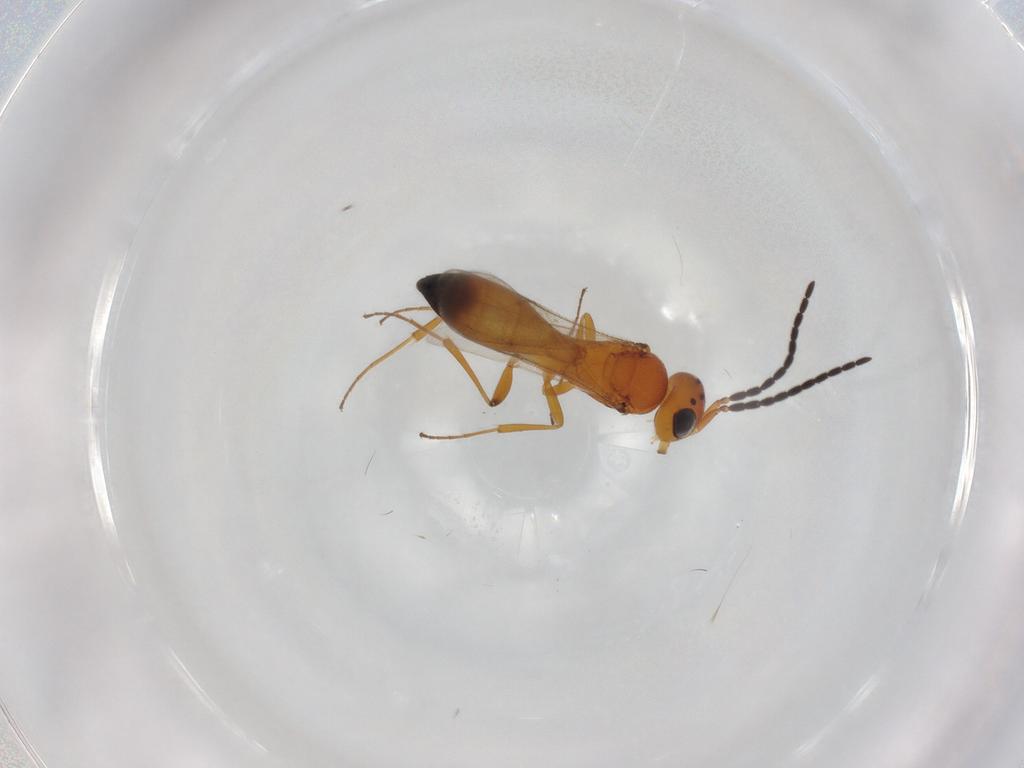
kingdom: Animalia
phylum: Arthropoda
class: Insecta
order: Hymenoptera
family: Scelionidae
